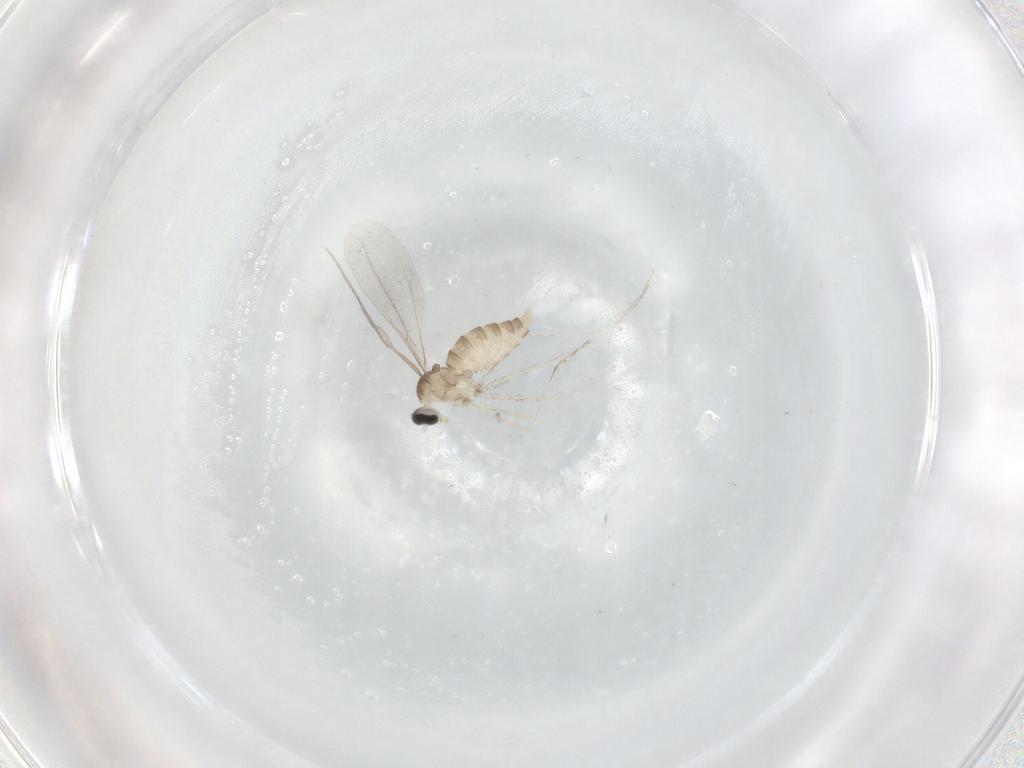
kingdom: Animalia
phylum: Arthropoda
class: Insecta
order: Diptera
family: Cecidomyiidae
